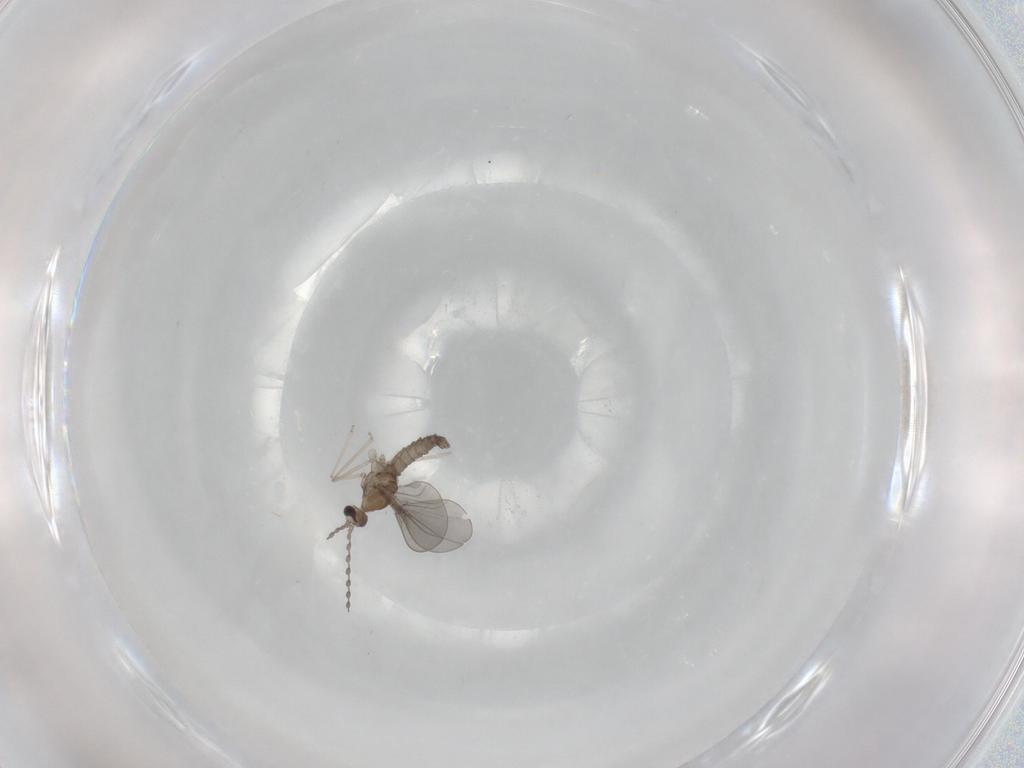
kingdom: Animalia
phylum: Arthropoda
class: Insecta
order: Diptera
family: Cecidomyiidae
